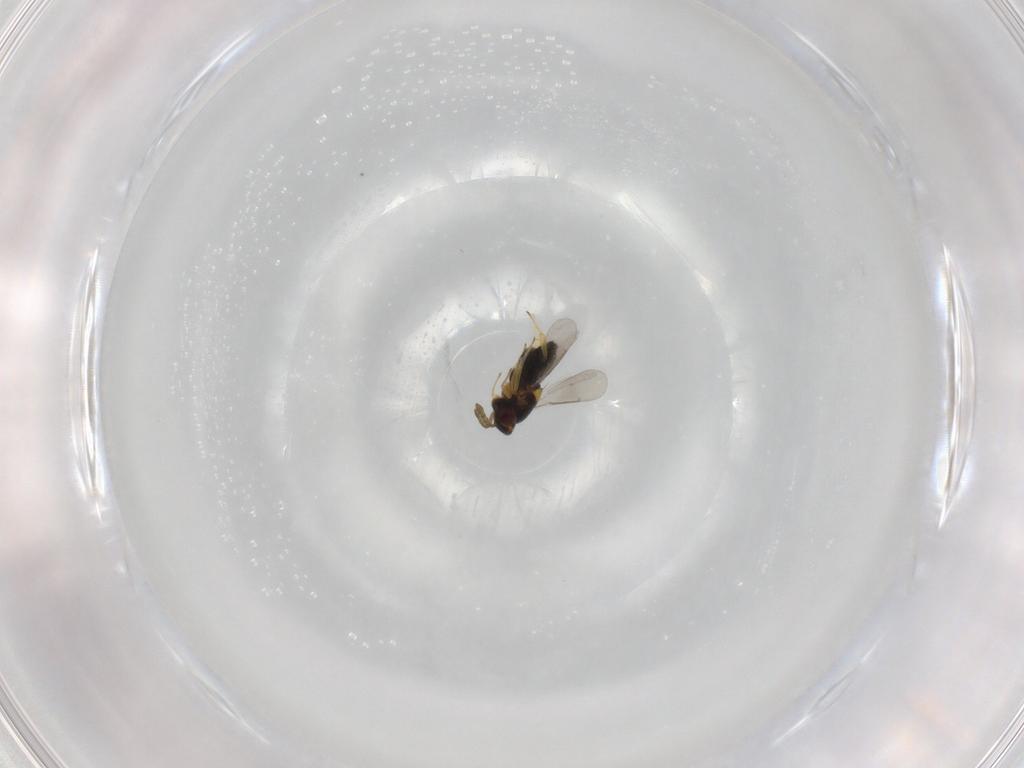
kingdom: Animalia
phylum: Arthropoda
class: Insecta
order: Hymenoptera
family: Aphelinidae
